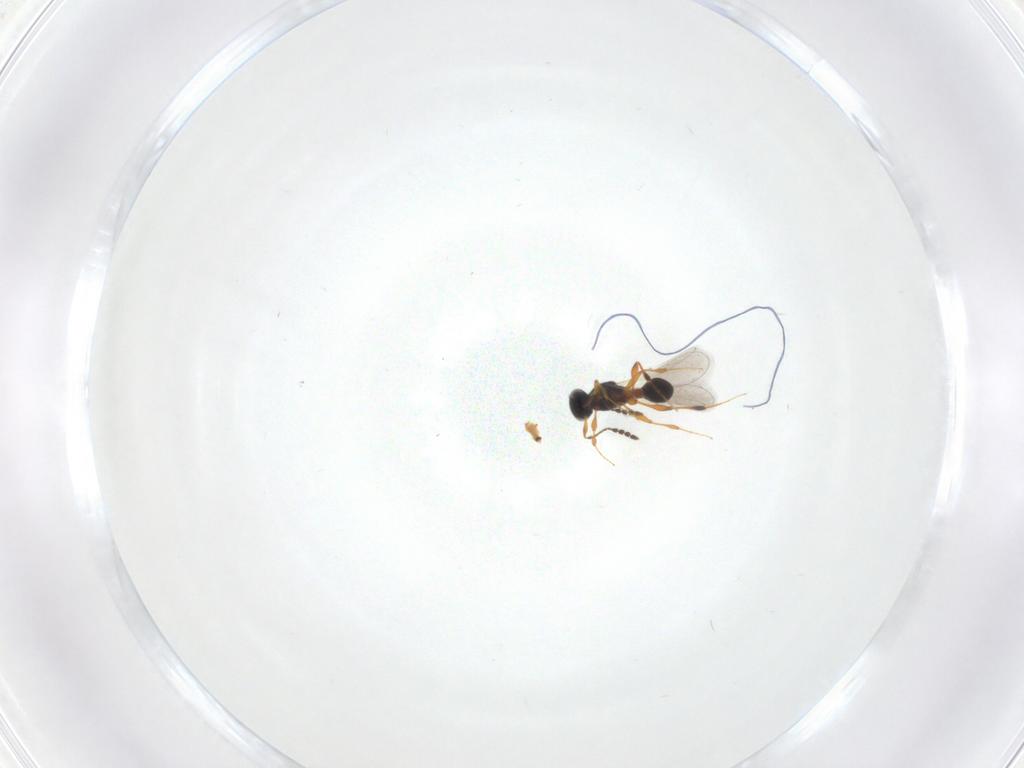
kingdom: Animalia
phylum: Arthropoda
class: Insecta
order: Hymenoptera
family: Platygastridae
